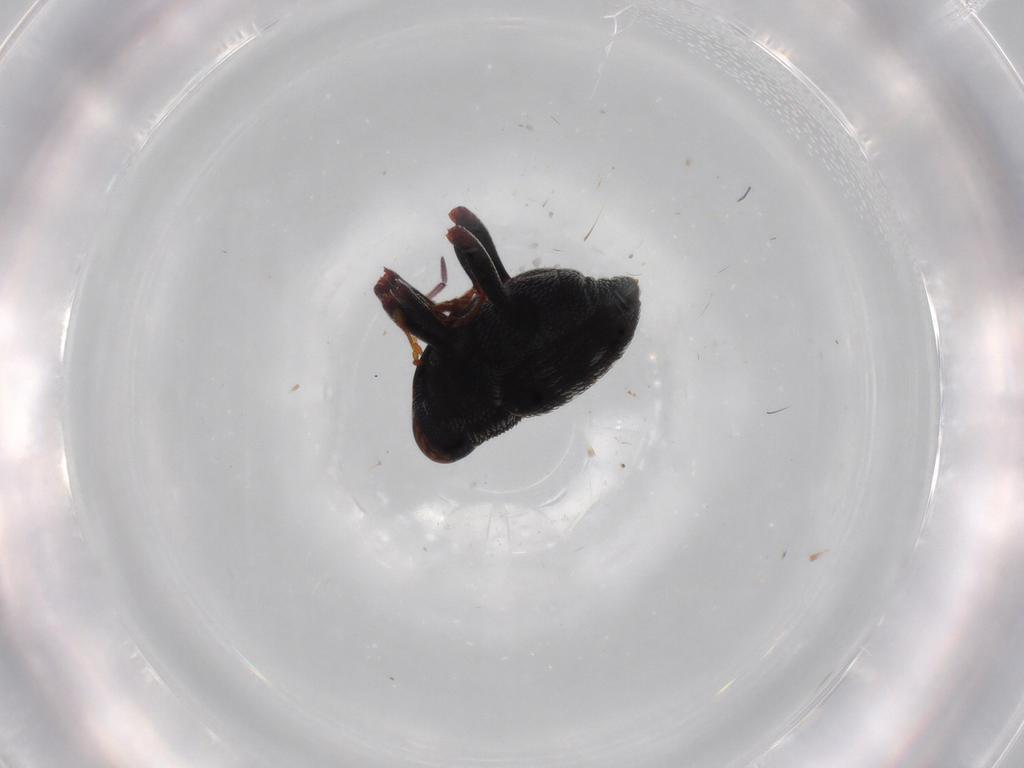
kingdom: Animalia
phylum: Arthropoda
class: Insecta
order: Coleoptera
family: Curculionidae
